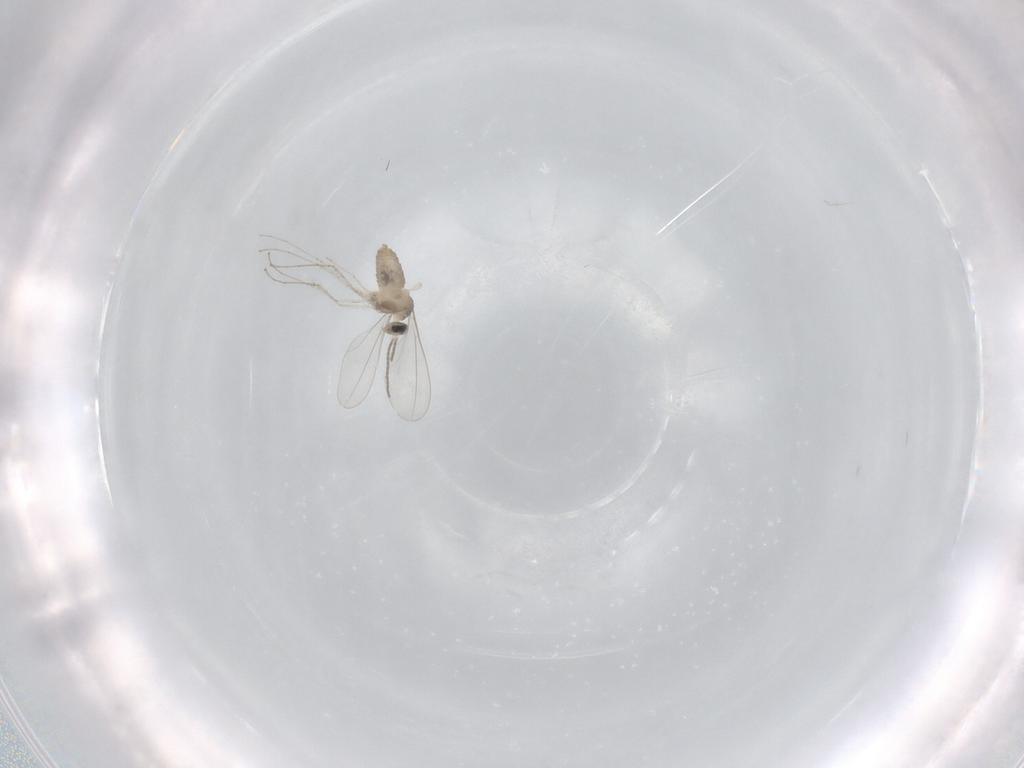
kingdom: Animalia
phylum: Arthropoda
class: Insecta
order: Diptera
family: Cecidomyiidae
